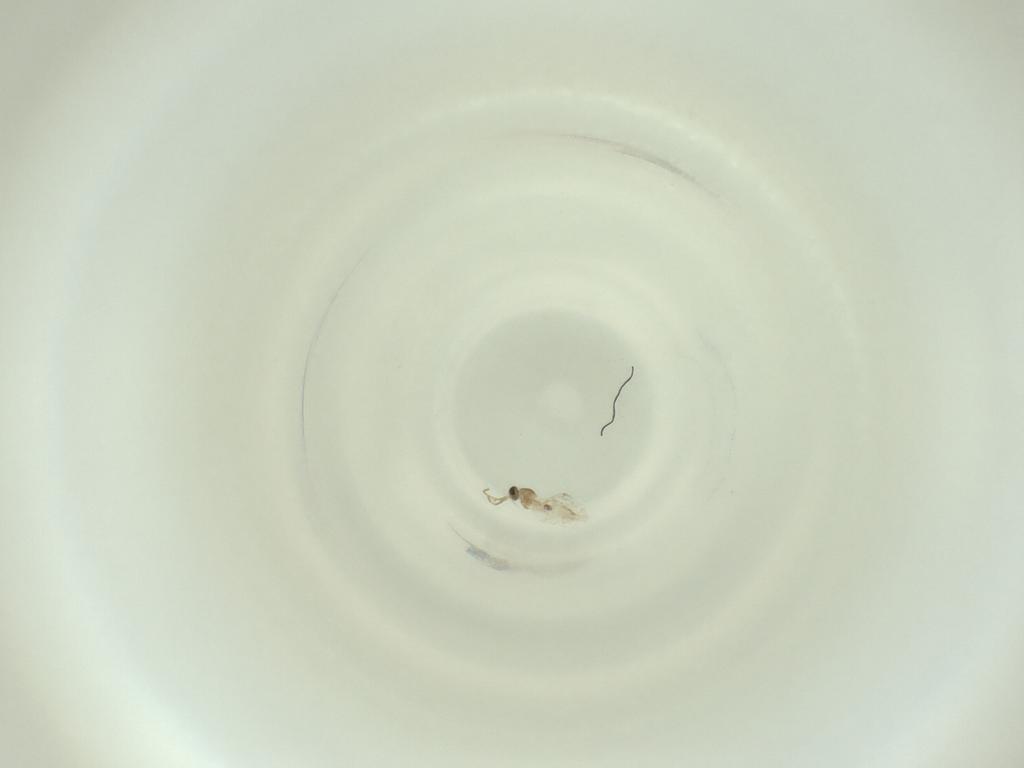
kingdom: Animalia
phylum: Arthropoda
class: Insecta
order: Diptera
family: Cecidomyiidae
